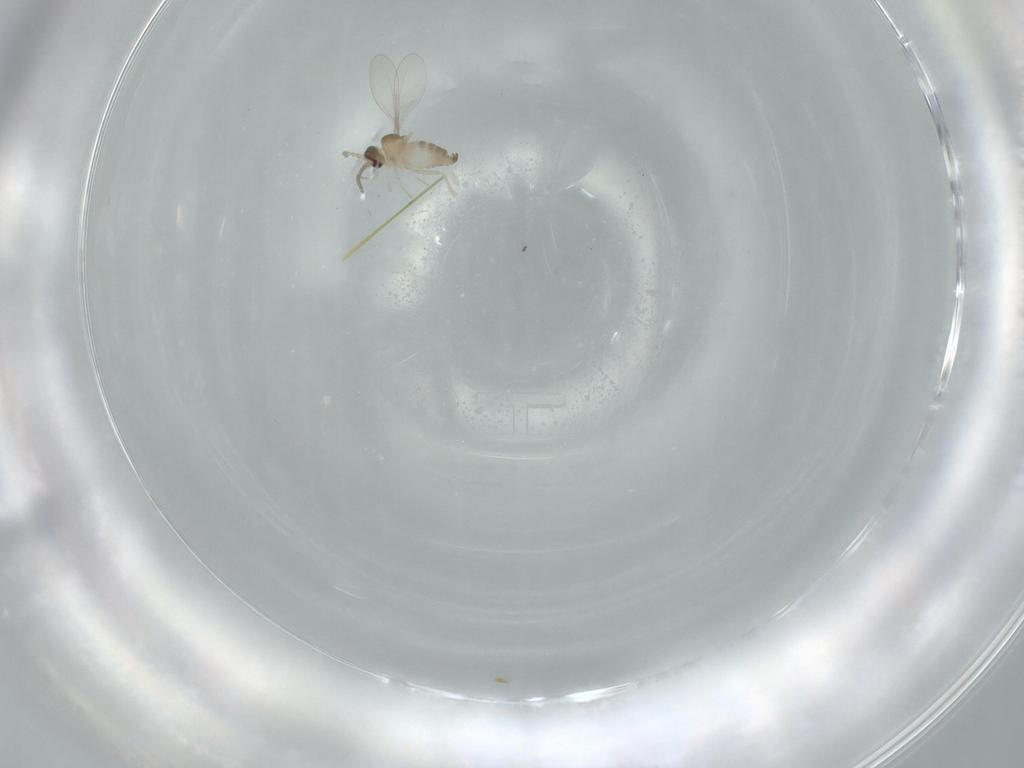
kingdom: Animalia
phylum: Arthropoda
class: Insecta
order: Diptera
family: Cecidomyiidae
